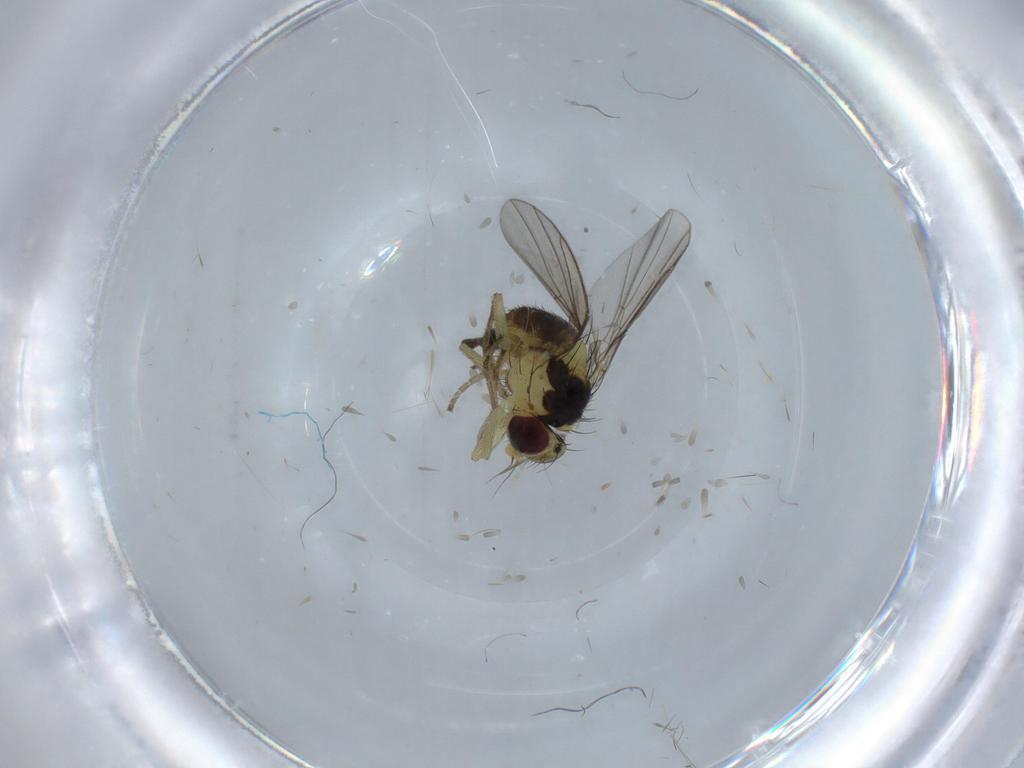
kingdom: Animalia
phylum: Arthropoda
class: Insecta
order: Diptera
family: Agromyzidae
